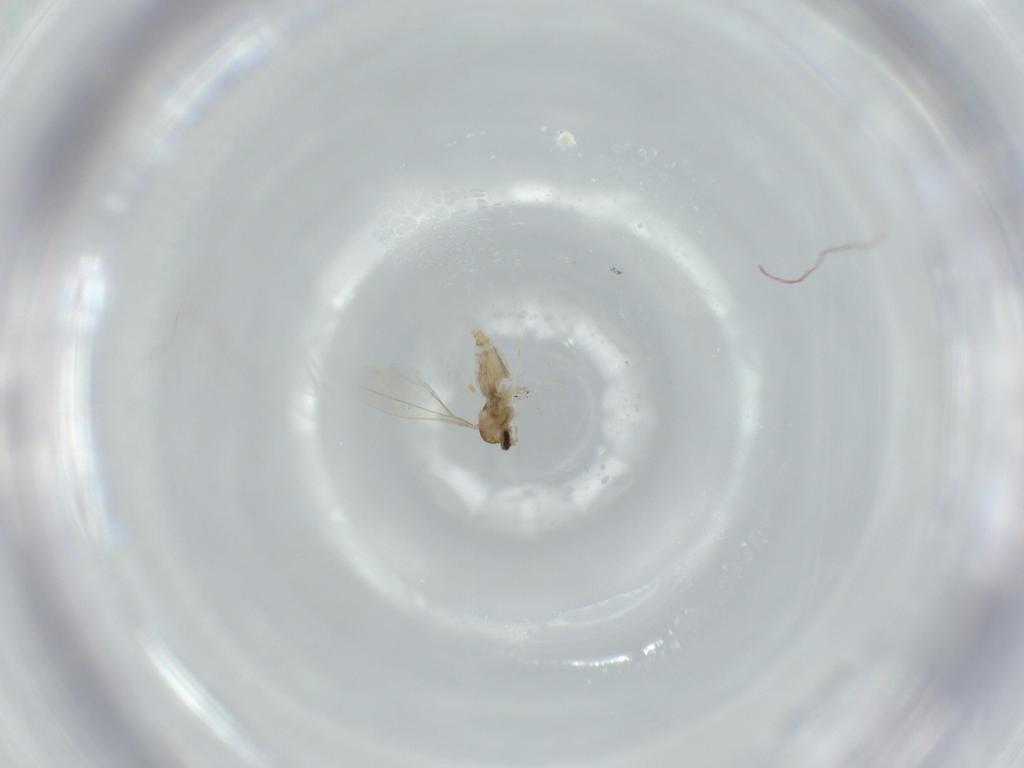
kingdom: Animalia
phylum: Arthropoda
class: Insecta
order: Diptera
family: Cecidomyiidae
